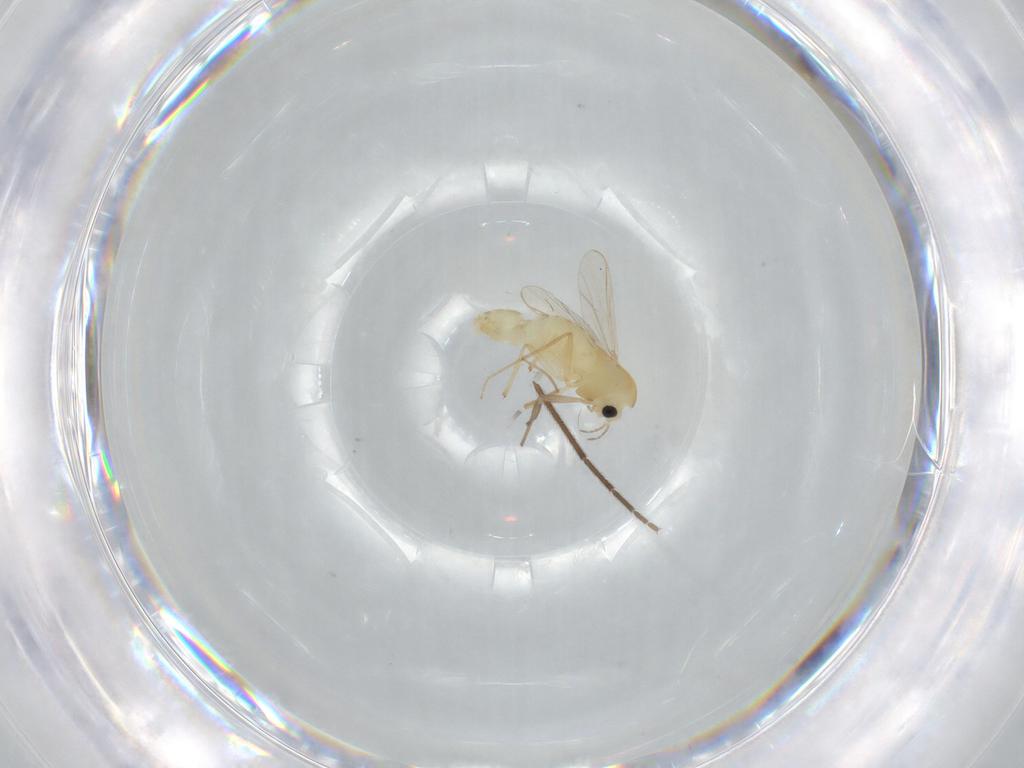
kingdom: Animalia
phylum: Arthropoda
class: Insecta
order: Diptera
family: Chironomidae
